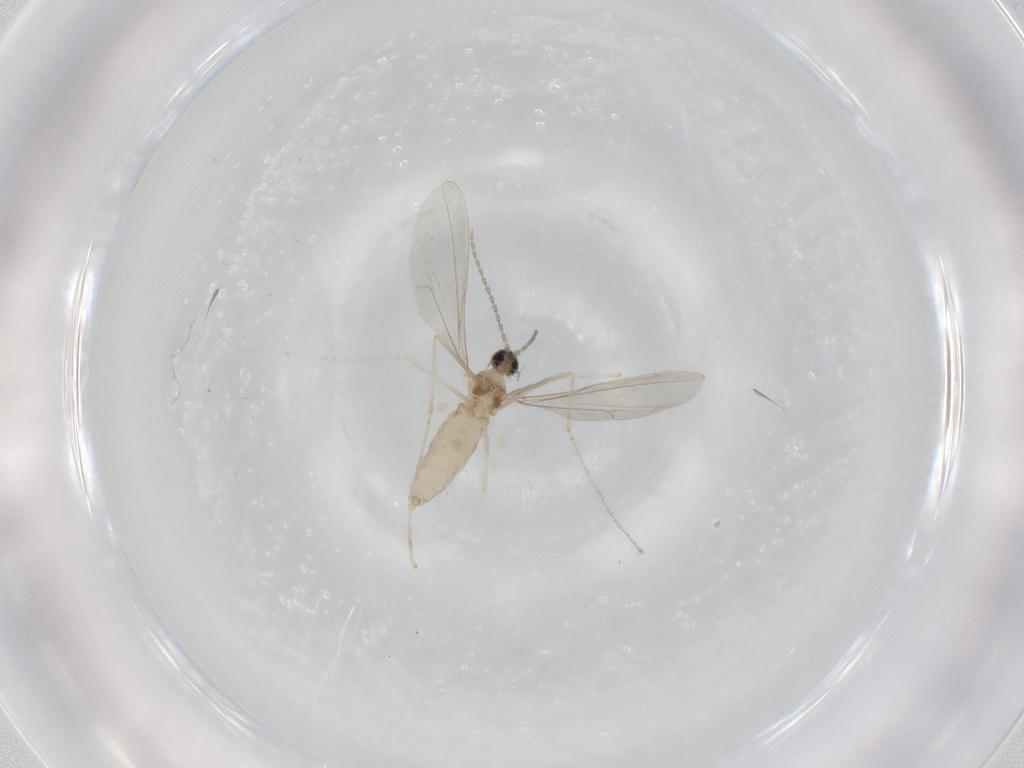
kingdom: Animalia
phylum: Arthropoda
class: Insecta
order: Diptera
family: Cecidomyiidae
